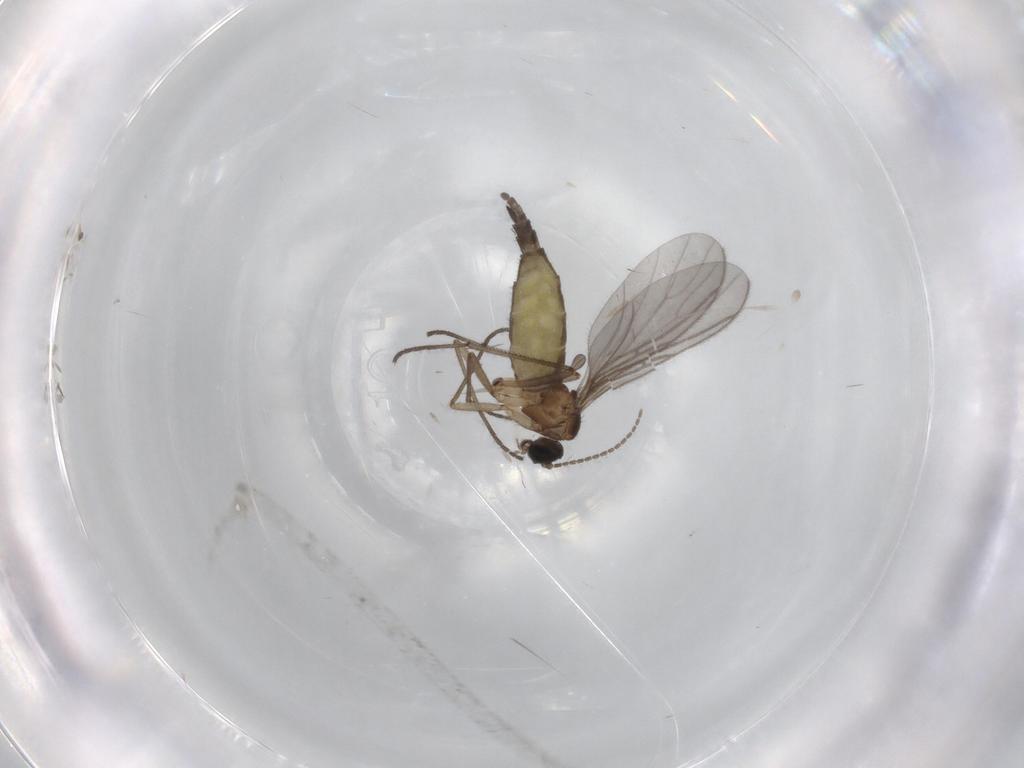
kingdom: Animalia
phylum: Arthropoda
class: Insecta
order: Diptera
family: Sciaridae
